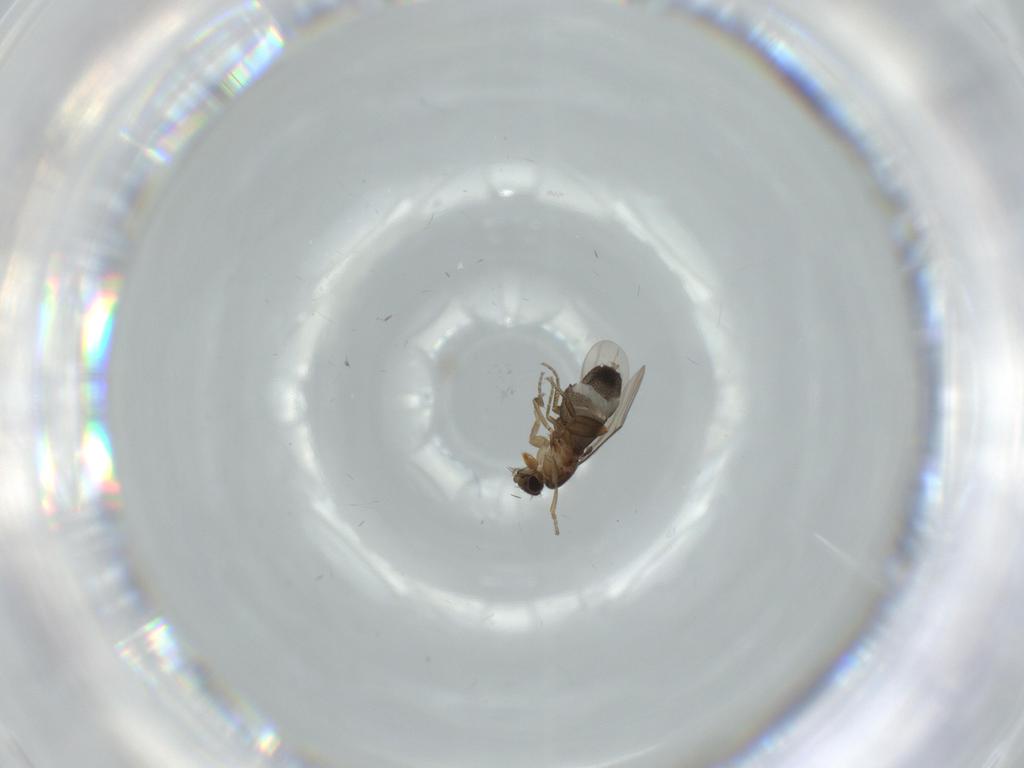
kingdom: Animalia
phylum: Arthropoda
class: Insecta
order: Diptera
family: Phoridae
